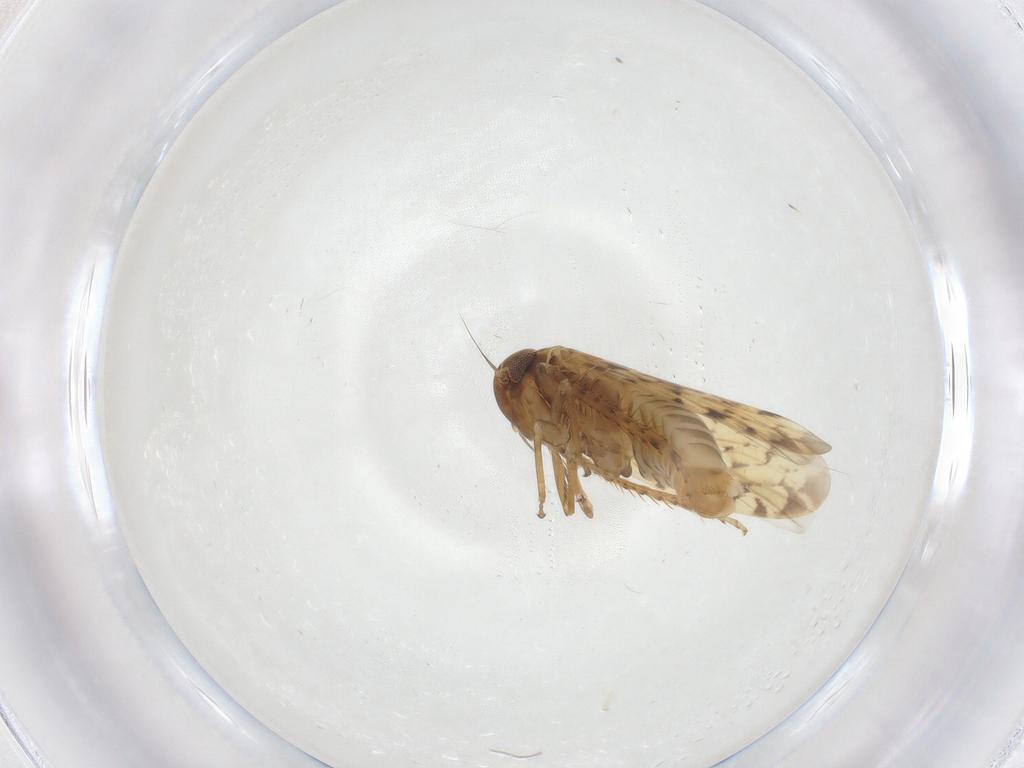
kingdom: Animalia
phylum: Arthropoda
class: Insecta
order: Hemiptera
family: Cicadellidae
